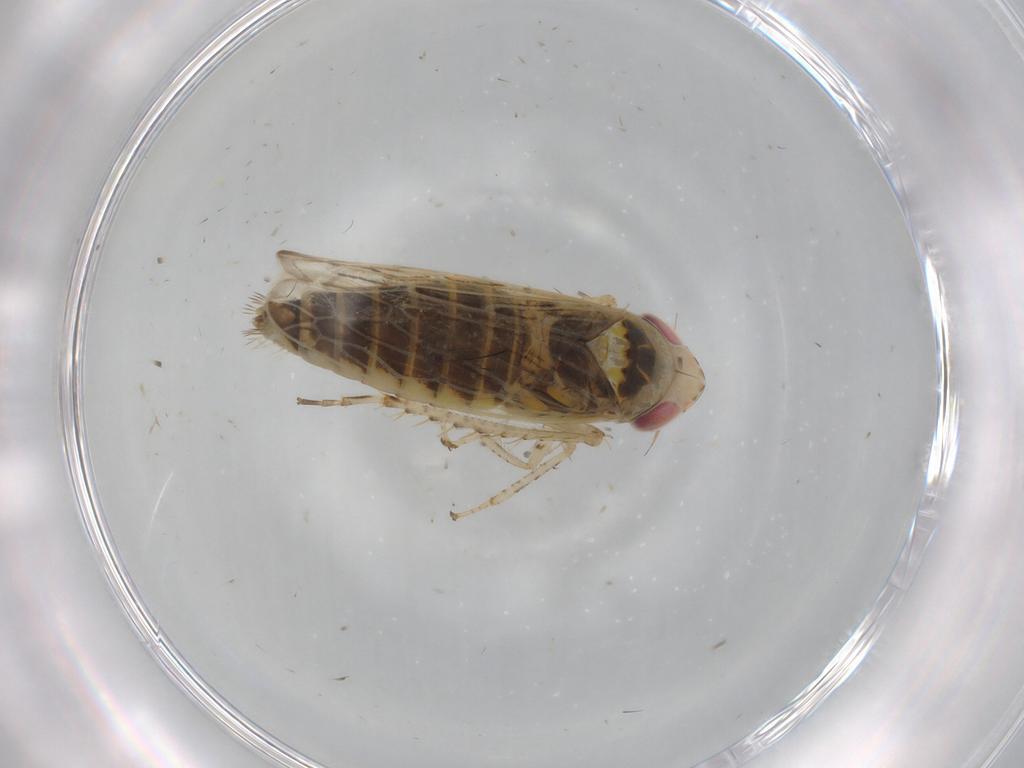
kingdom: Animalia
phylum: Arthropoda
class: Insecta
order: Hemiptera
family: Cicadellidae
